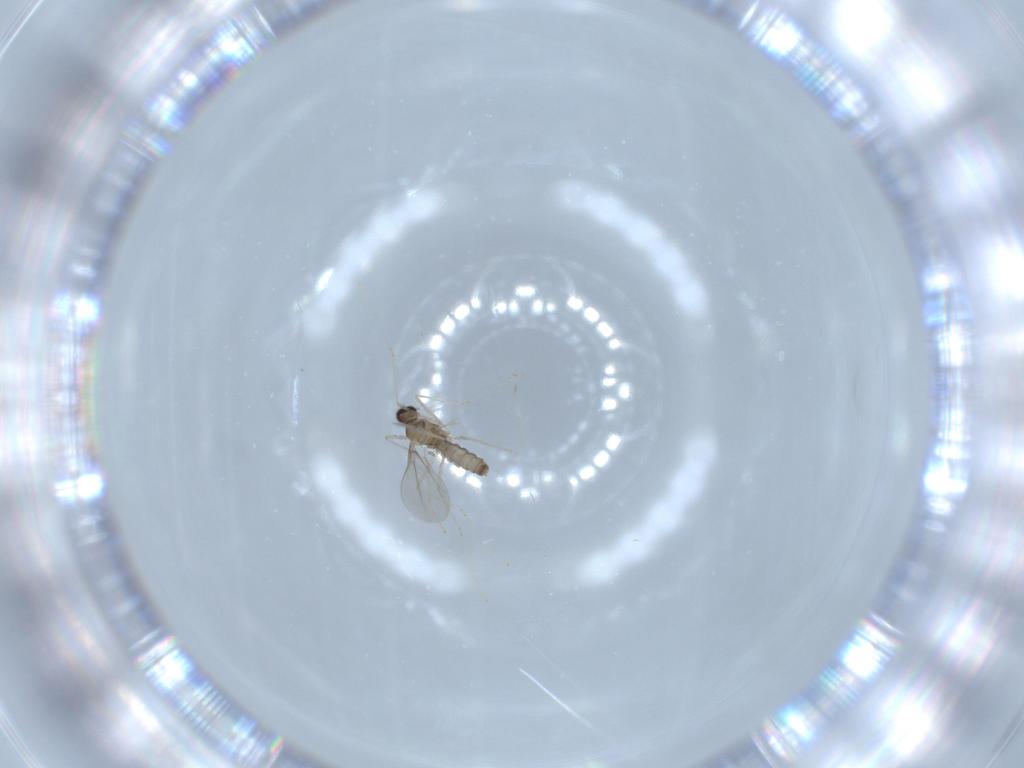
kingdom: Animalia
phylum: Arthropoda
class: Insecta
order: Diptera
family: Cecidomyiidae
